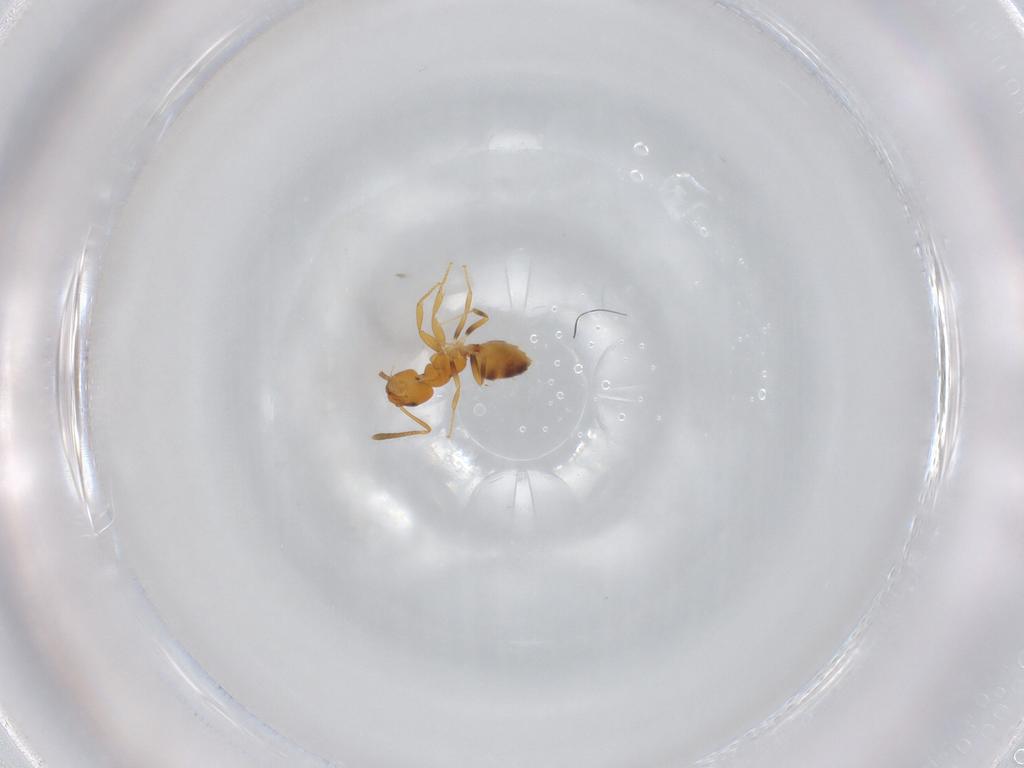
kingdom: Animalia
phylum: Arthropoda
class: Insecta
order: Hymenoptera
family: Formicidae
